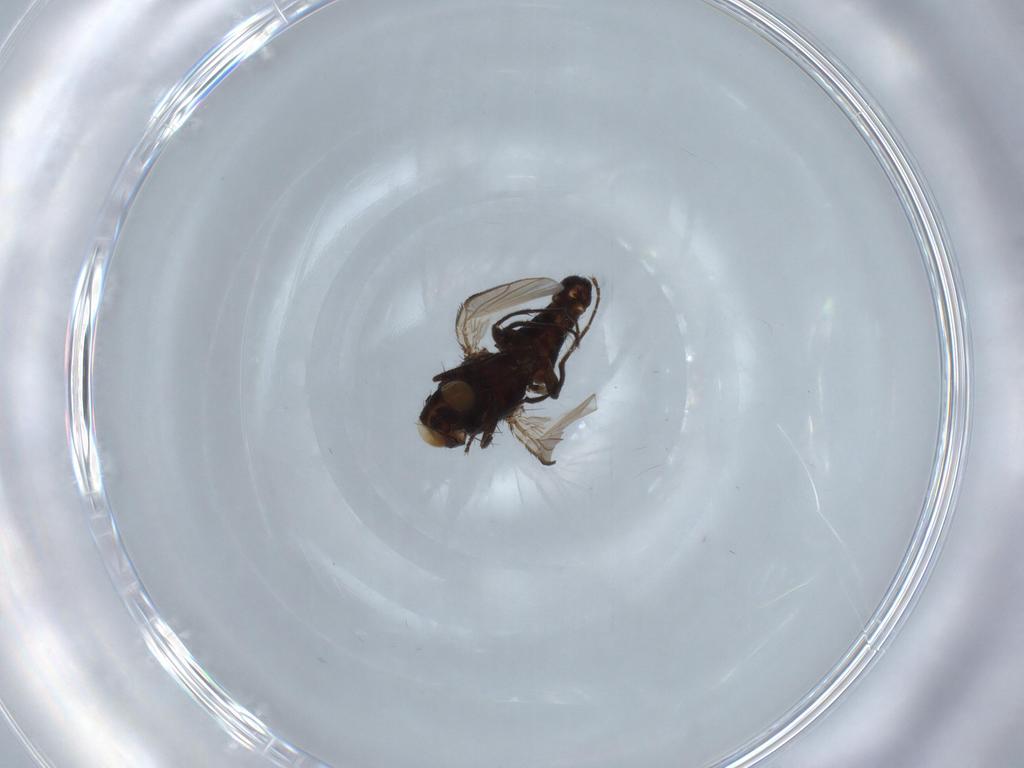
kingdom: Animalia
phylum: Arthropoda
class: Insecta
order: Diptera
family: Carnidae
